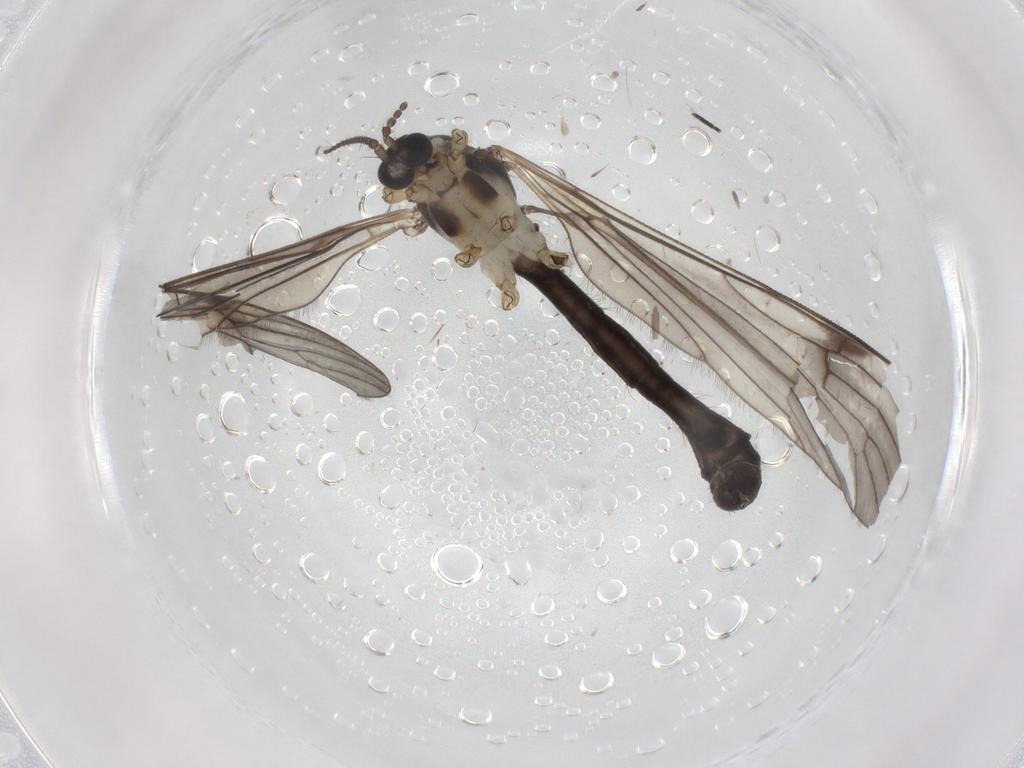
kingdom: Animalia
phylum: Arthropoda
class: Insecta
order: Diptera
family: Limoniidae
